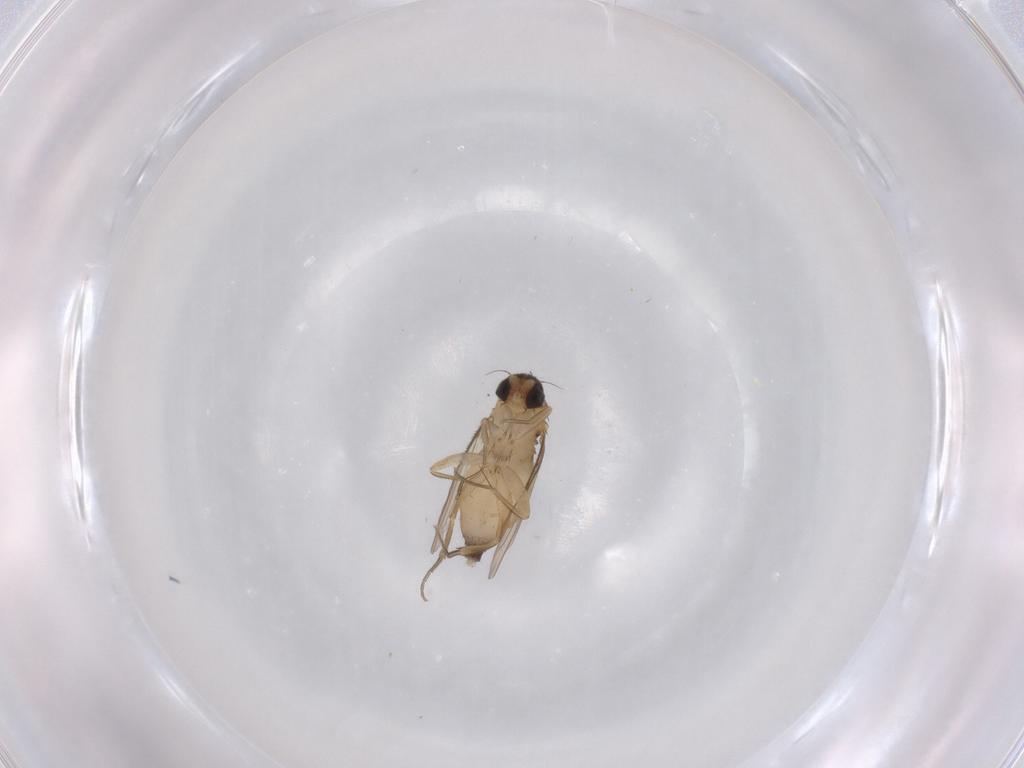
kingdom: Animalia
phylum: Arthropoda
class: Insecta
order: Diptera
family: Phoridae
